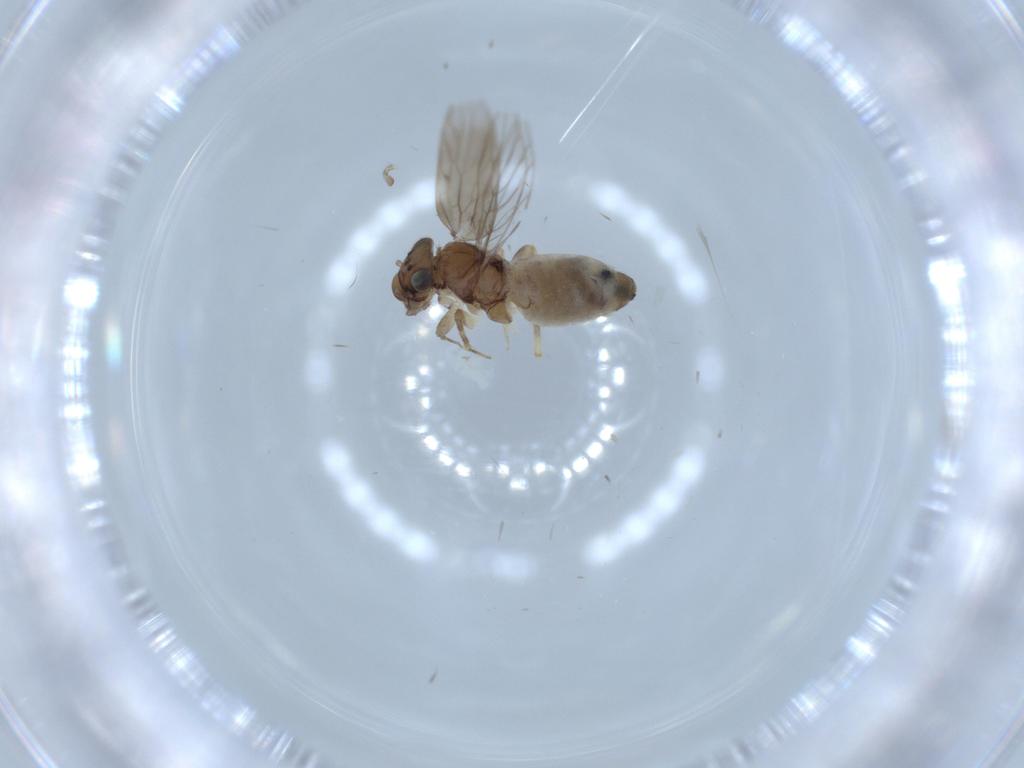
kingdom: Animalia
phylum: Arthropoda
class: Insecta
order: Psocodea
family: Lepidopsocidae
